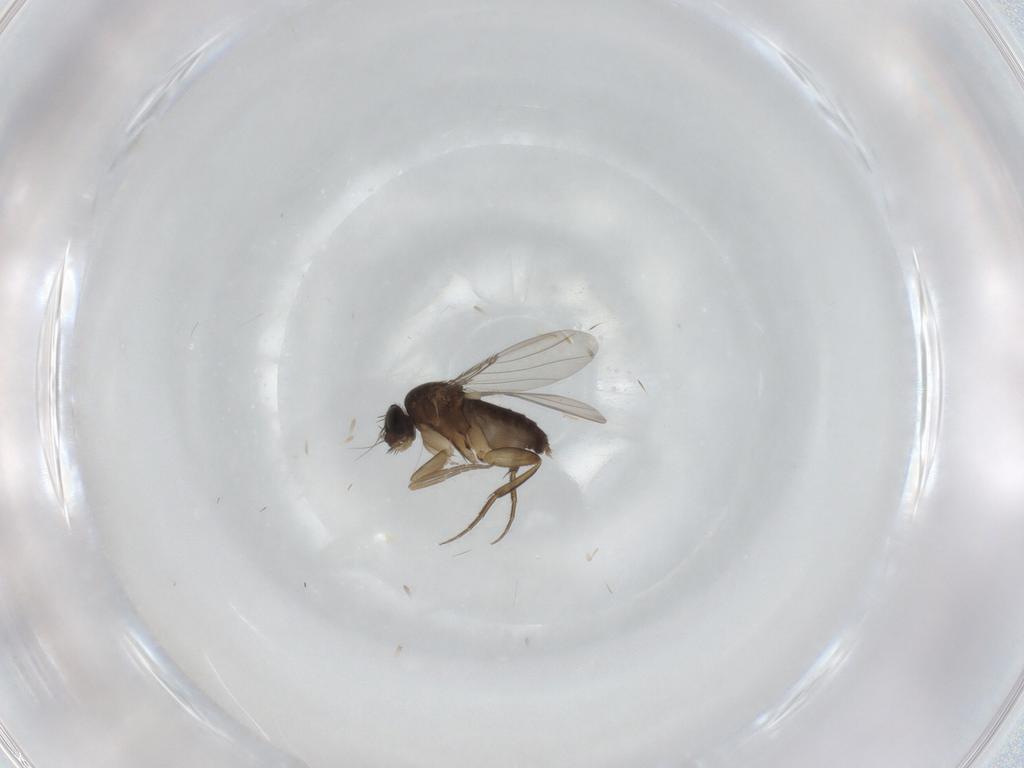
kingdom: Animalia
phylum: Arthropoda
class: Insecta
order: Diptera
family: Phoridae
